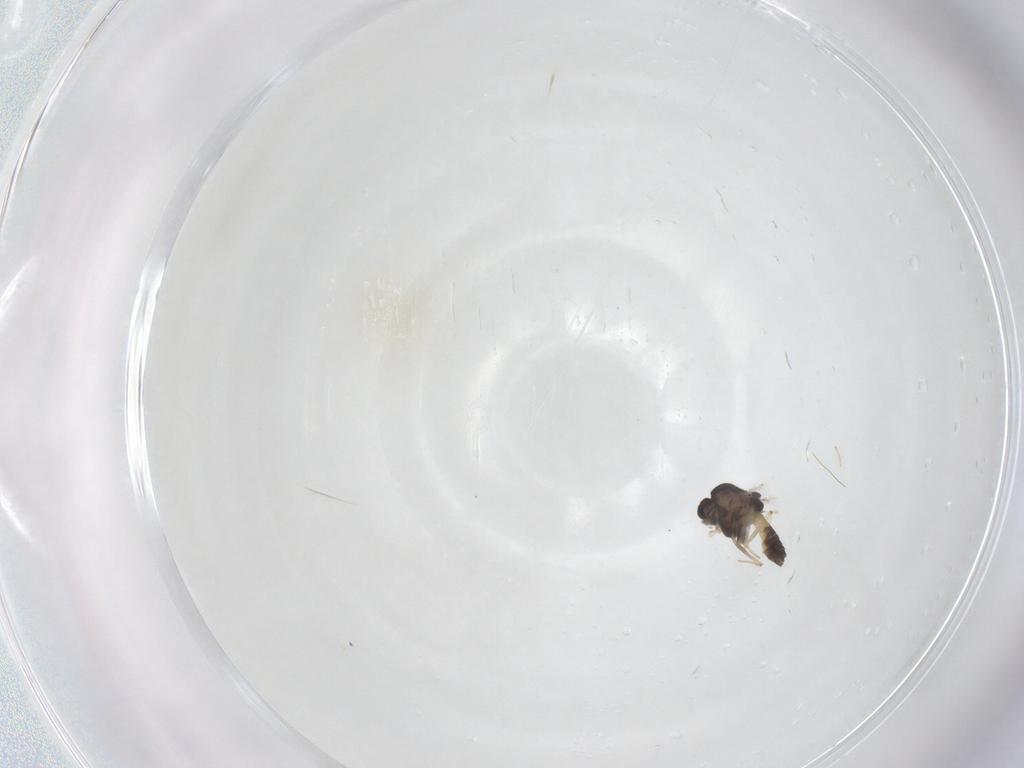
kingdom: Animalia
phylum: Arthropoda
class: Insecta
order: Diptera
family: Chironomidae
